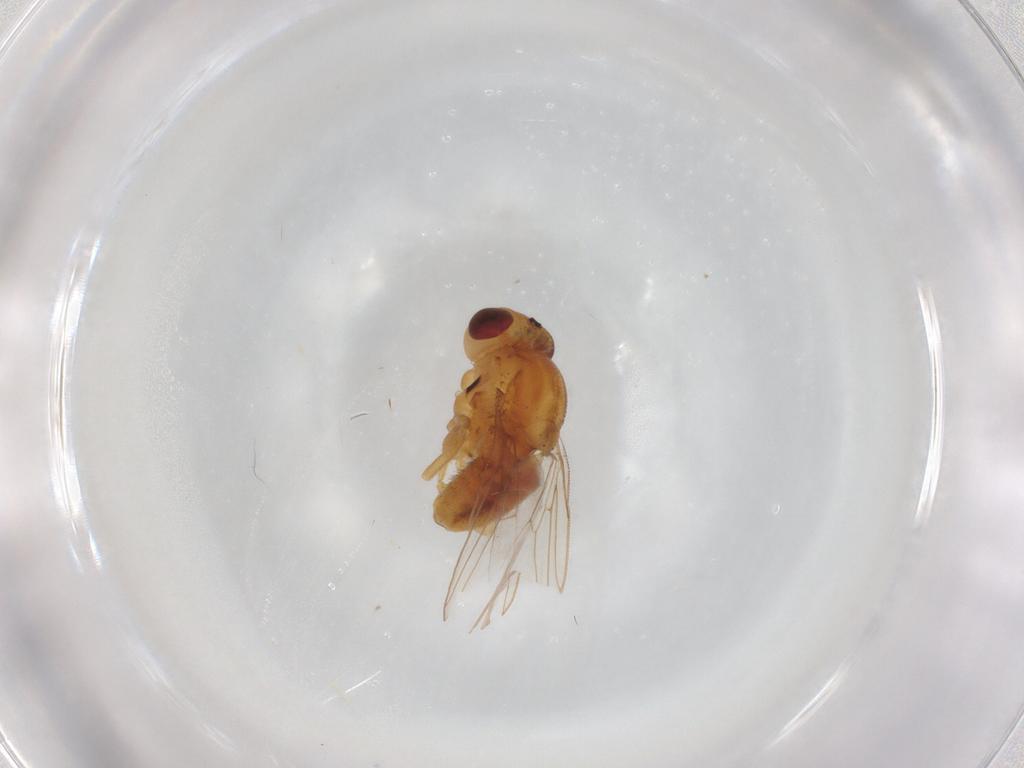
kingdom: Animalia
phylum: Arthropoda
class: Insecta
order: Diptera
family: Chloropidae
